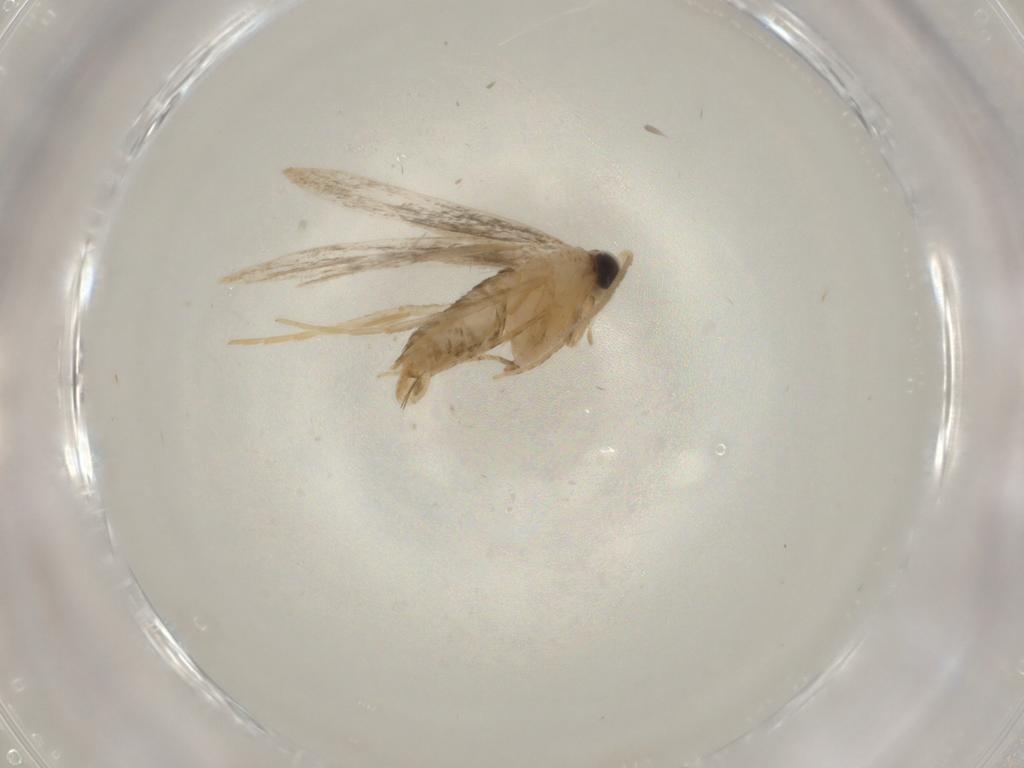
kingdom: Animalia
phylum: Arthropoda
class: Insecta
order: Lepidoptera
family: Tineidae
